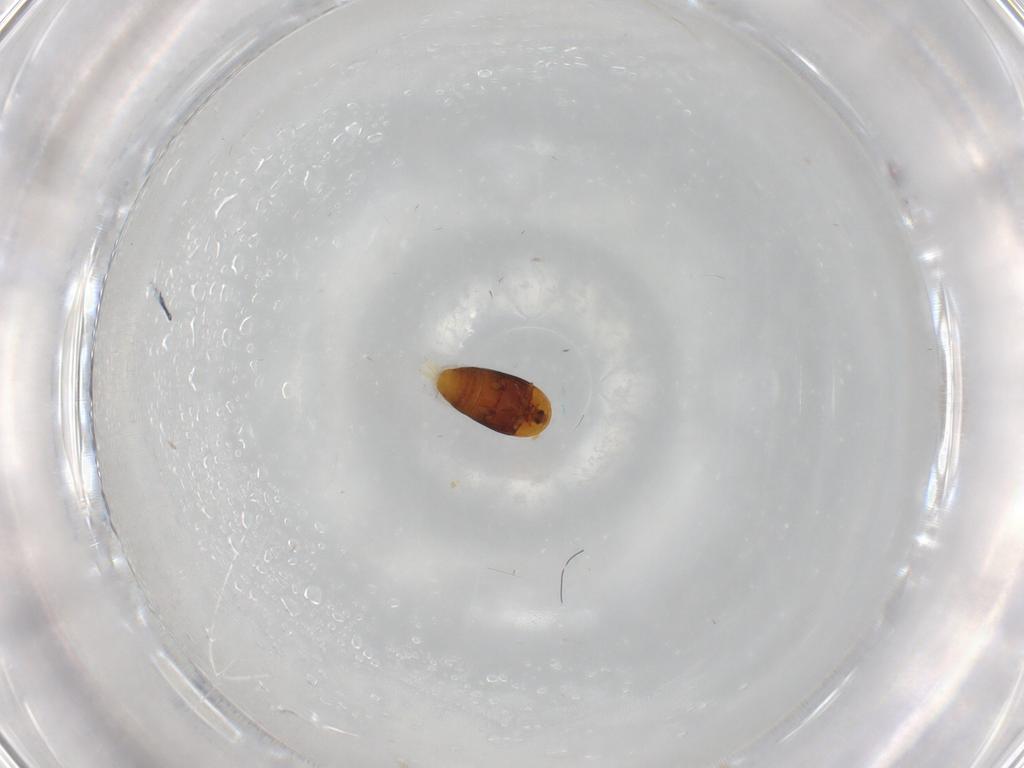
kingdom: Animalia
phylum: Arthropoda
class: Insecta
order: Coleoptera
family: Corylophidae
